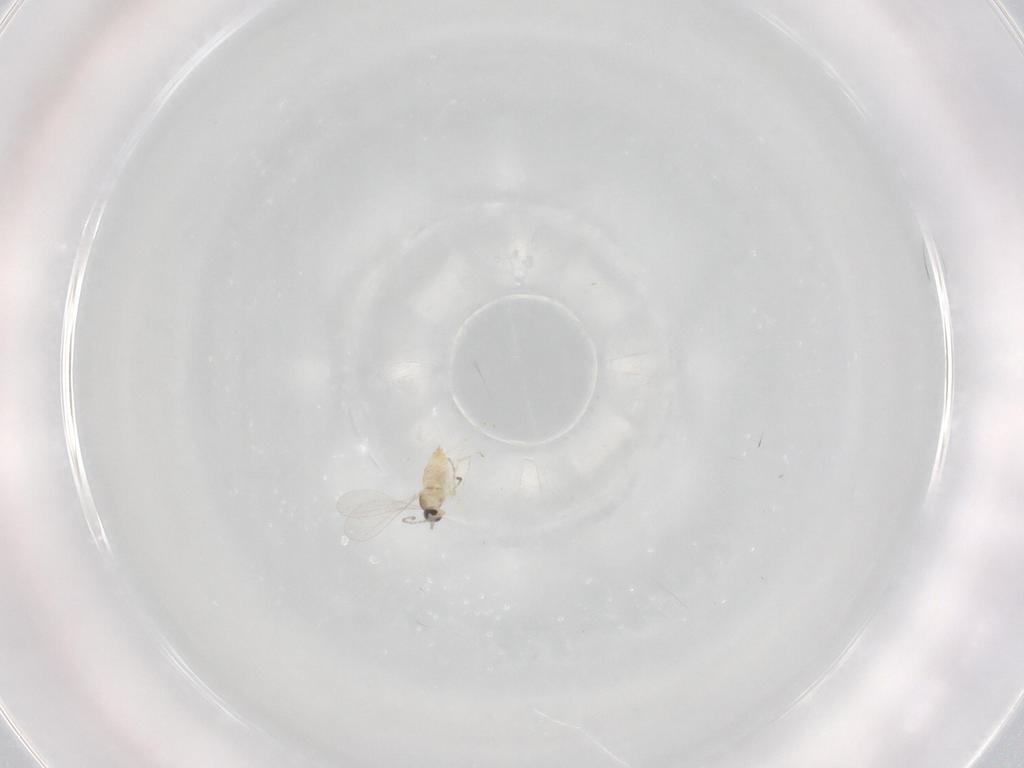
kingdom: Animalia
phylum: Arthropoda
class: Insecta
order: Diptera
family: Cecidomyiidae
